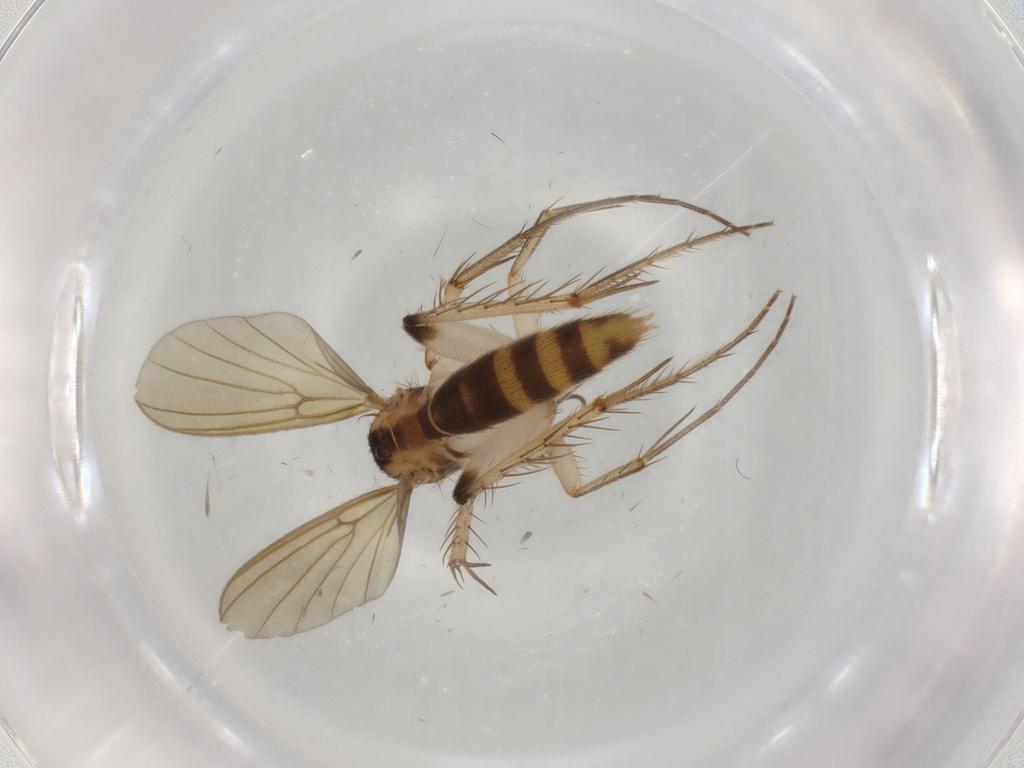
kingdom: Animalia
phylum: Arthropoda
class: Insecta
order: Diptera
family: Mycetophilidae
